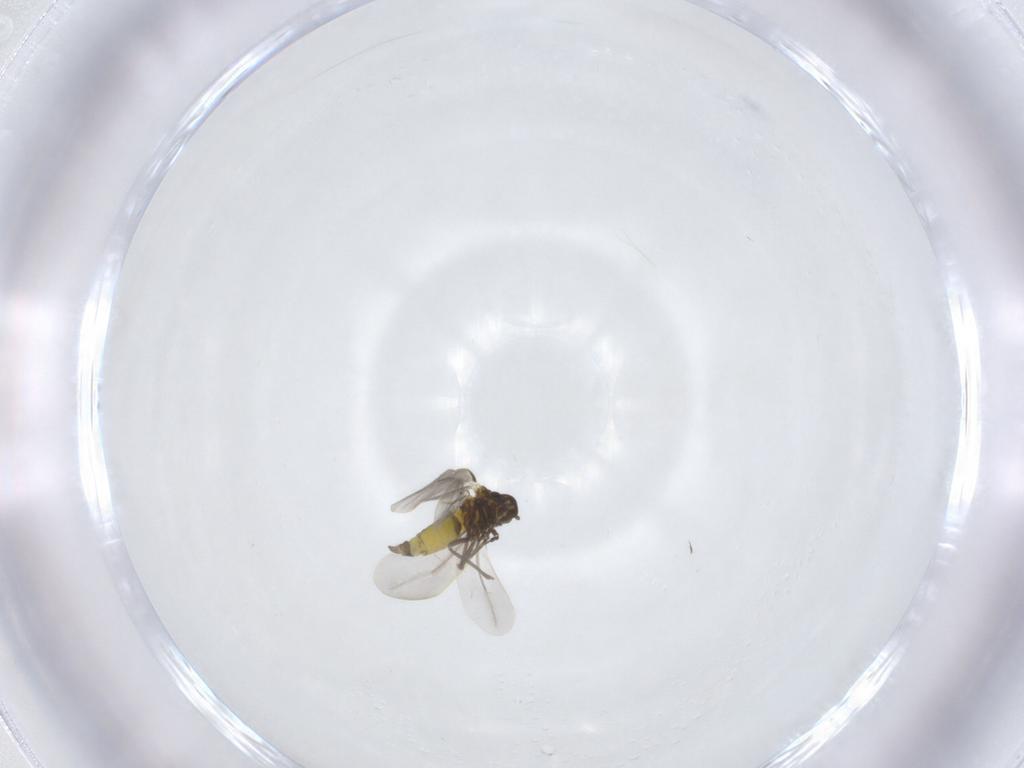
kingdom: Animalia
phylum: Arthropoda
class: Insecta
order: Hemiptera
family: Aleyrodidae
